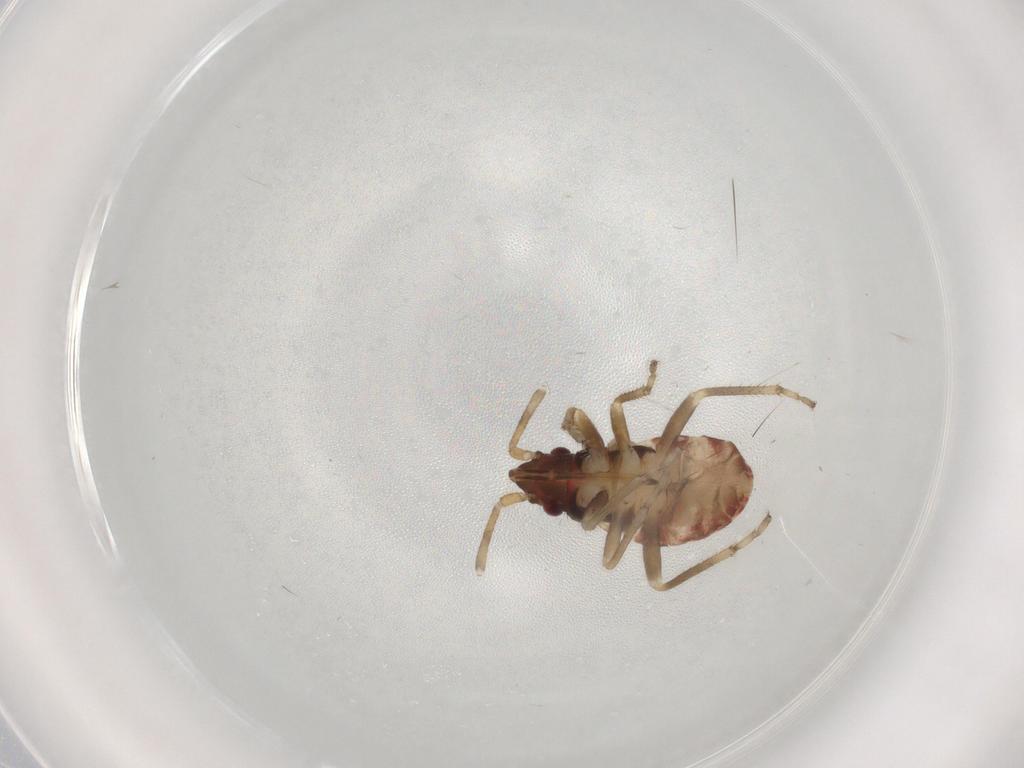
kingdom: Animalia
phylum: Arthropoda
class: Insecta
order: Hemiptera
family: Rhyparochromidae
